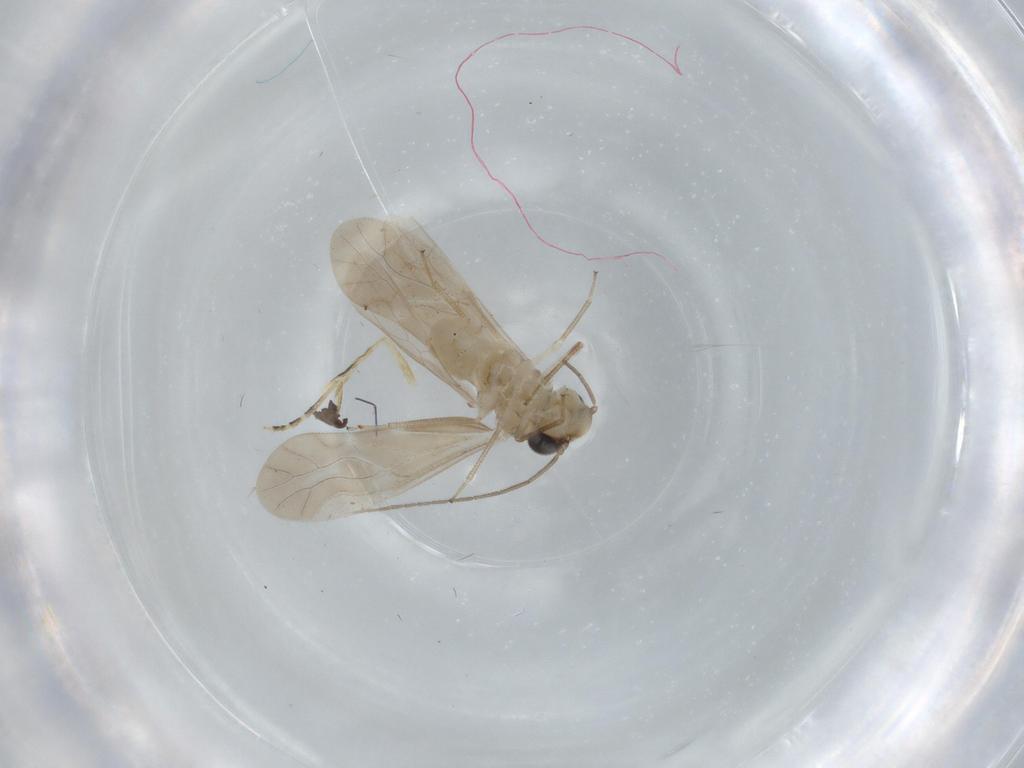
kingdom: Animalia
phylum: Arthropoda
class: Insecta
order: Psocodea
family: Caeciliusidae
